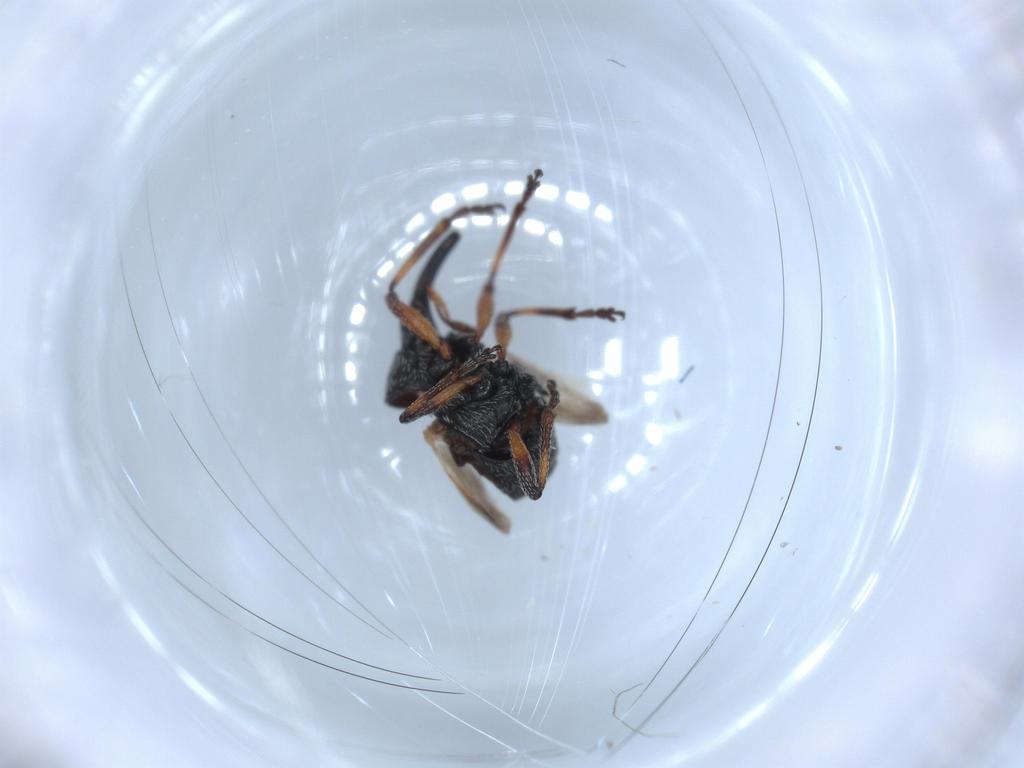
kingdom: Animalia
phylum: Arthropoda
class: Insecta
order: Coleoptera
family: Brentidae
